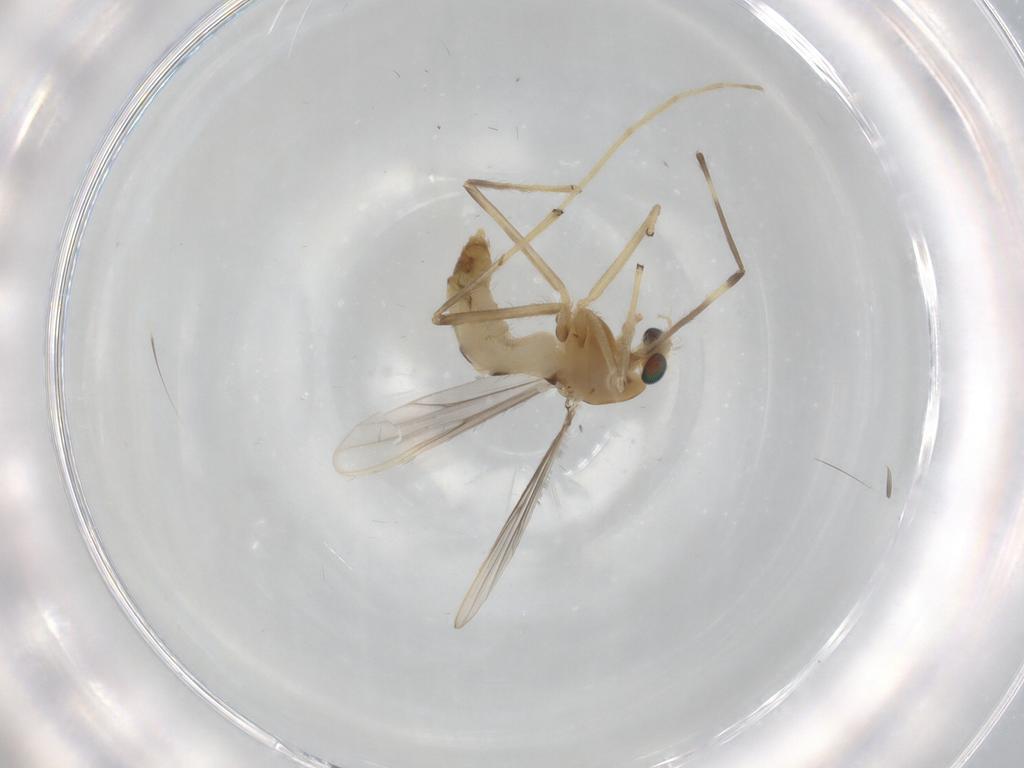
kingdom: Animalia
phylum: Arthropoda
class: Insecta
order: Diptera
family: Chironomidae
